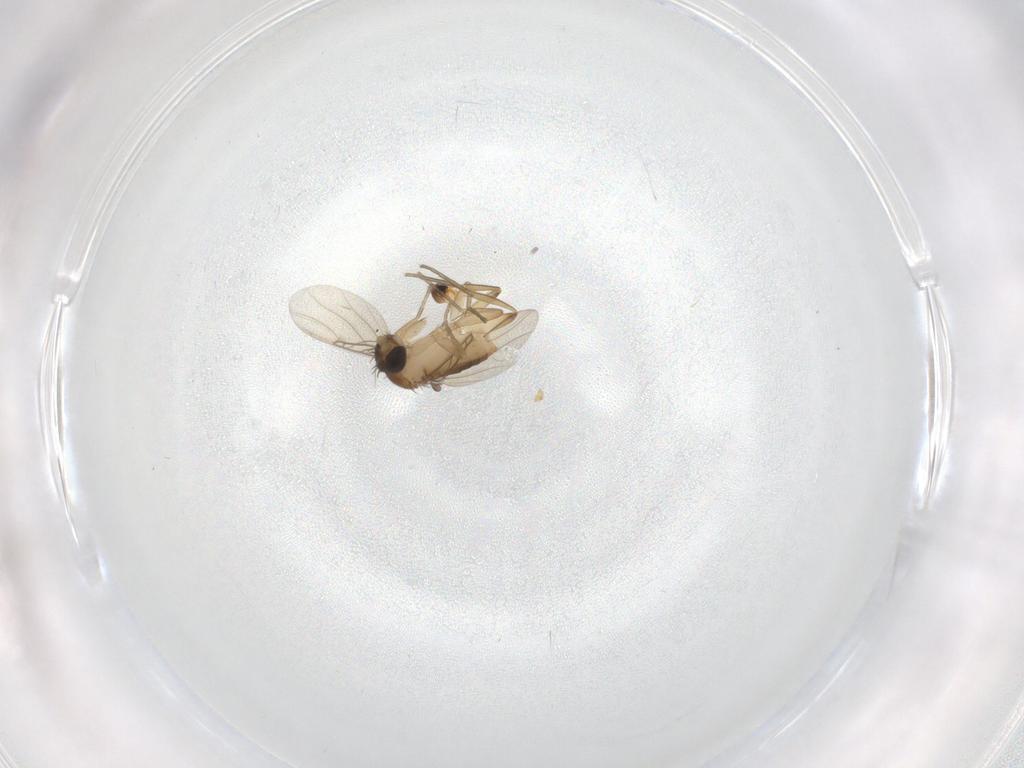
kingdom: Animalia
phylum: Arthropoda
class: Insecta
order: Diptera
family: Phoridae
